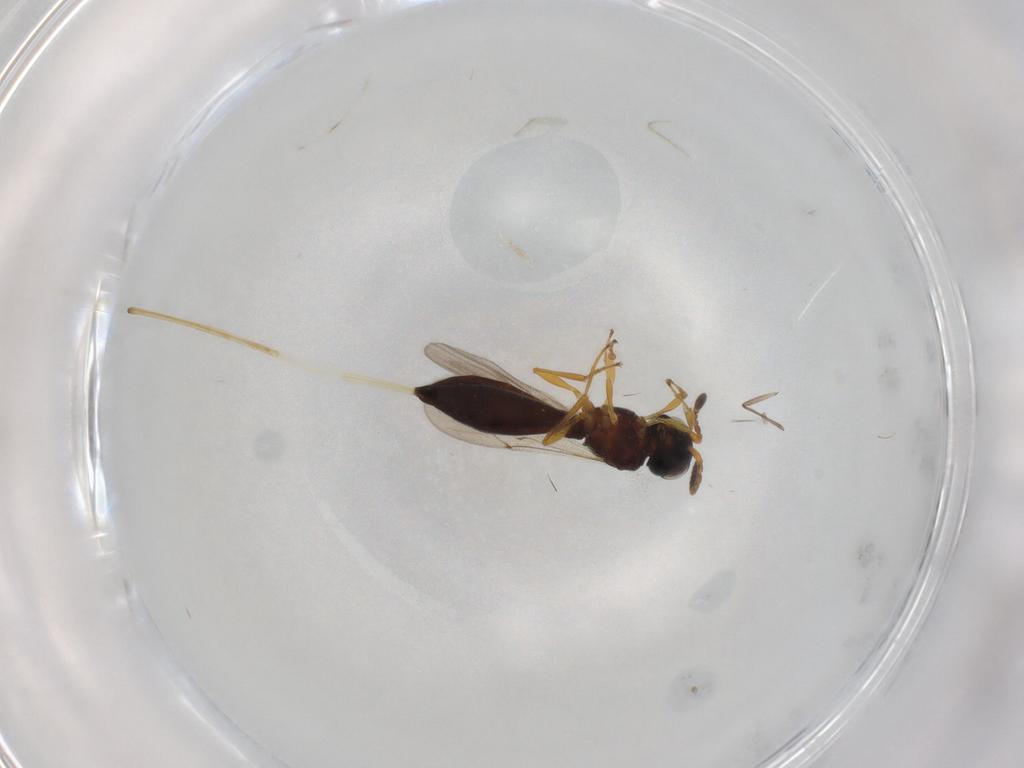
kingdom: Animalia
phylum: Arthropoda
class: Insecta
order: Hymenoptera
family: Scelionidae
